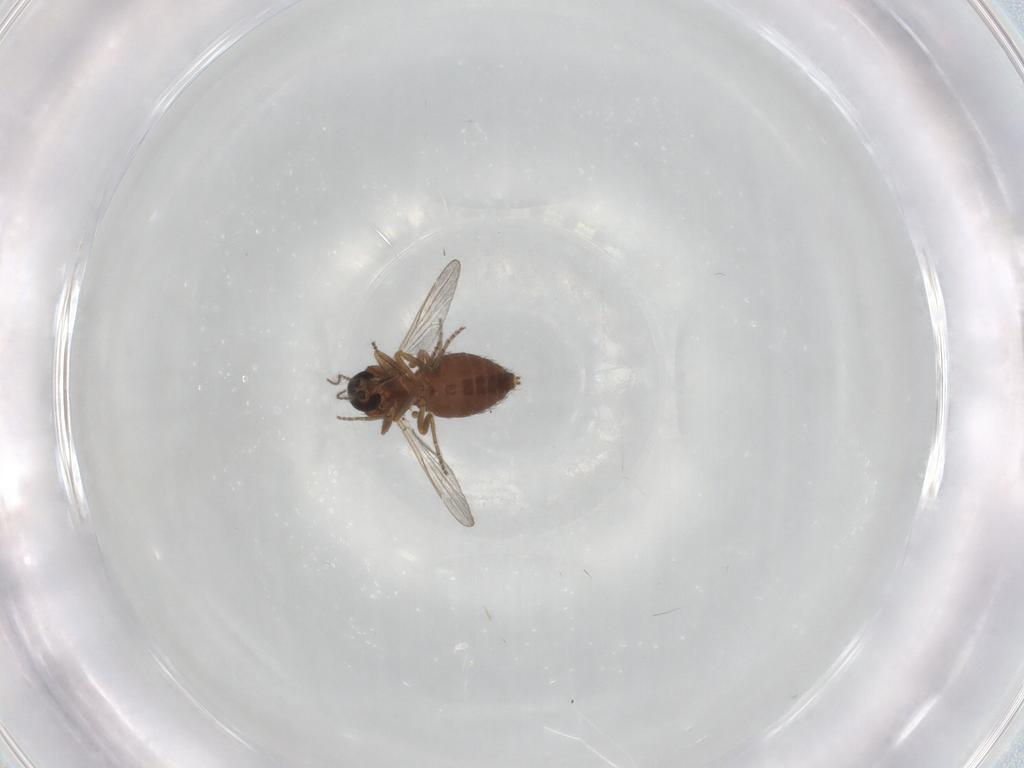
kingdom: Animalia
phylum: Arthropoda
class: Insecta
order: Diptera
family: Ceratopogonidae
